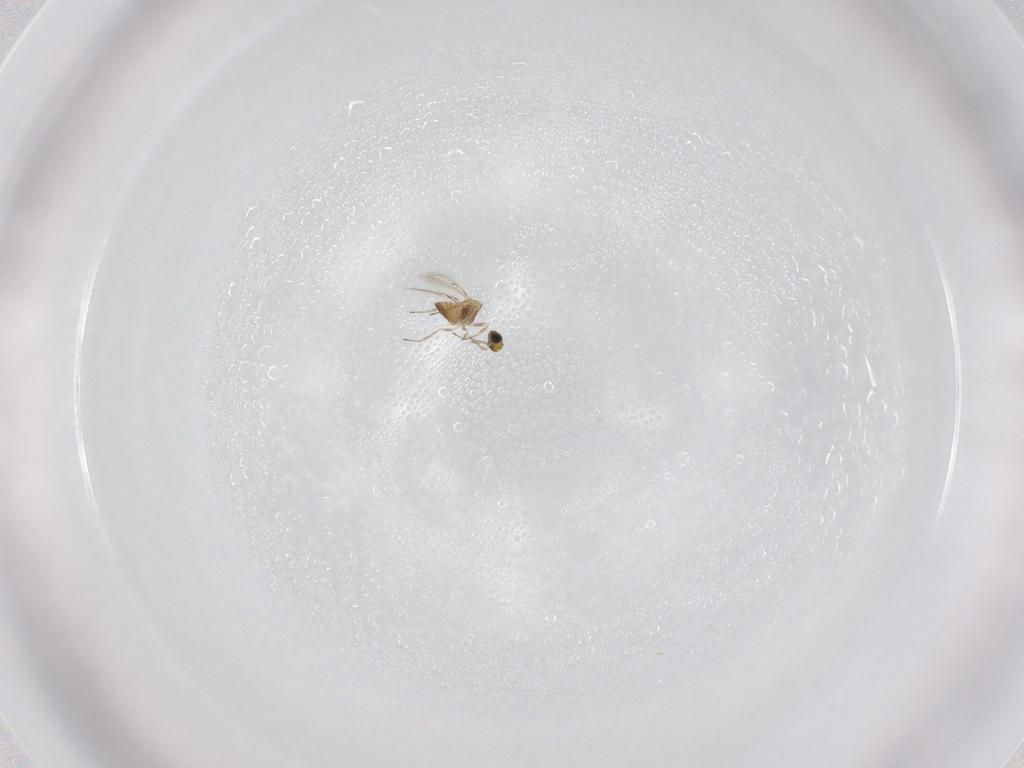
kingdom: Animalia
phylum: Arthropoda
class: Insecta
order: Hymenoptera
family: Trichogrammatidae
